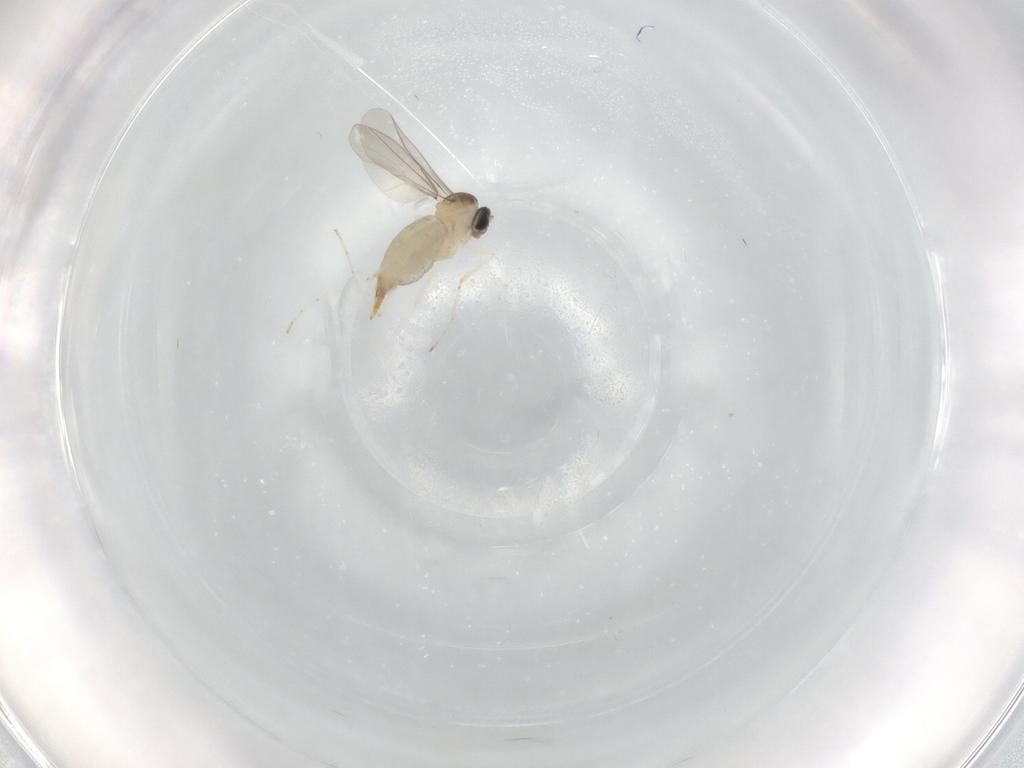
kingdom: Animalia
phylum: Arthropoda
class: Insecta
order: Diptera
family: Cecidomyiidae
